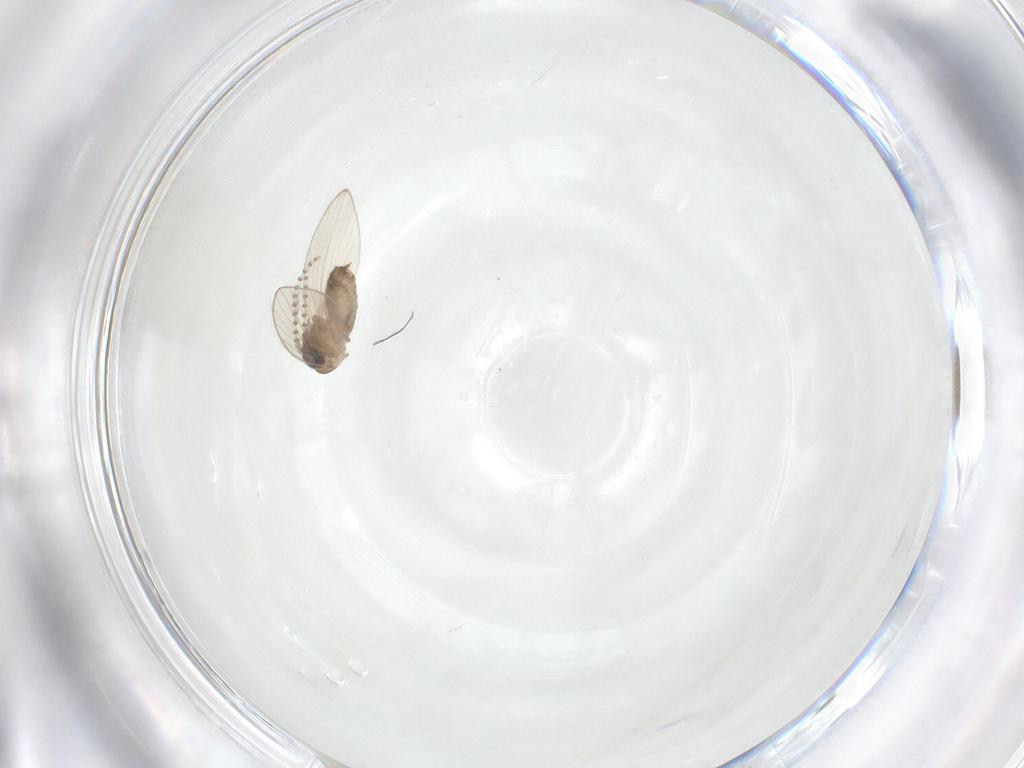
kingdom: Animalia
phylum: Arthropoda
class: Insecta
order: Diptera
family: Psychodidae
